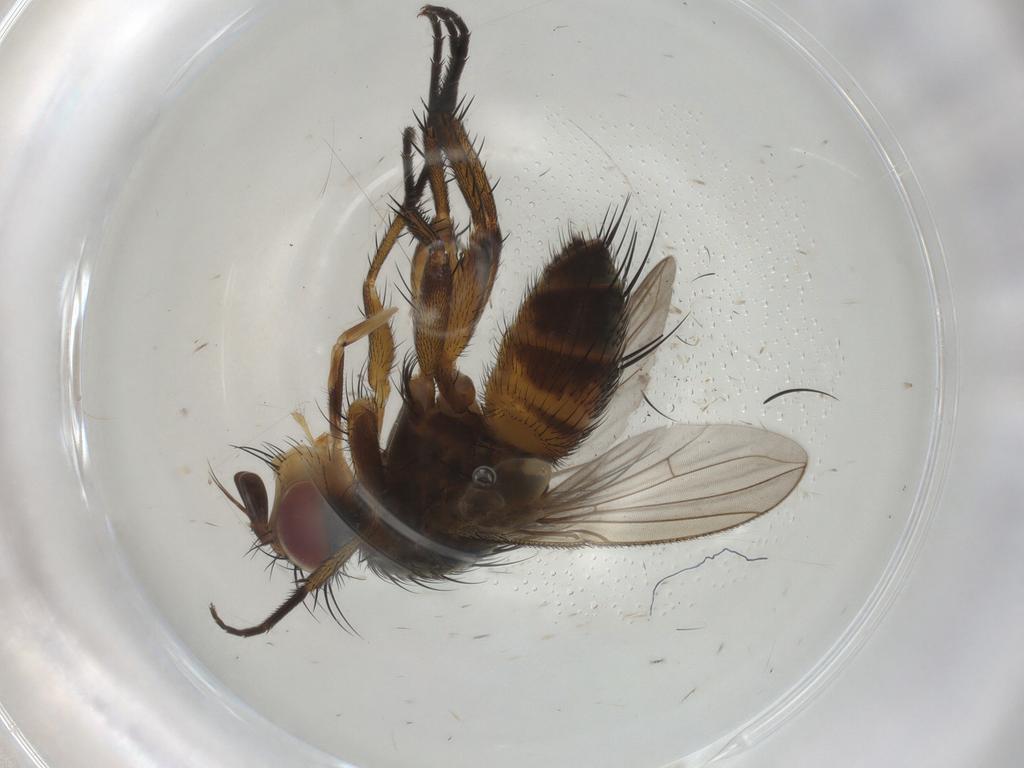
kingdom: Animalia
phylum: Arthropoda
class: Insecta
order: Diptera
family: Tachinidae
